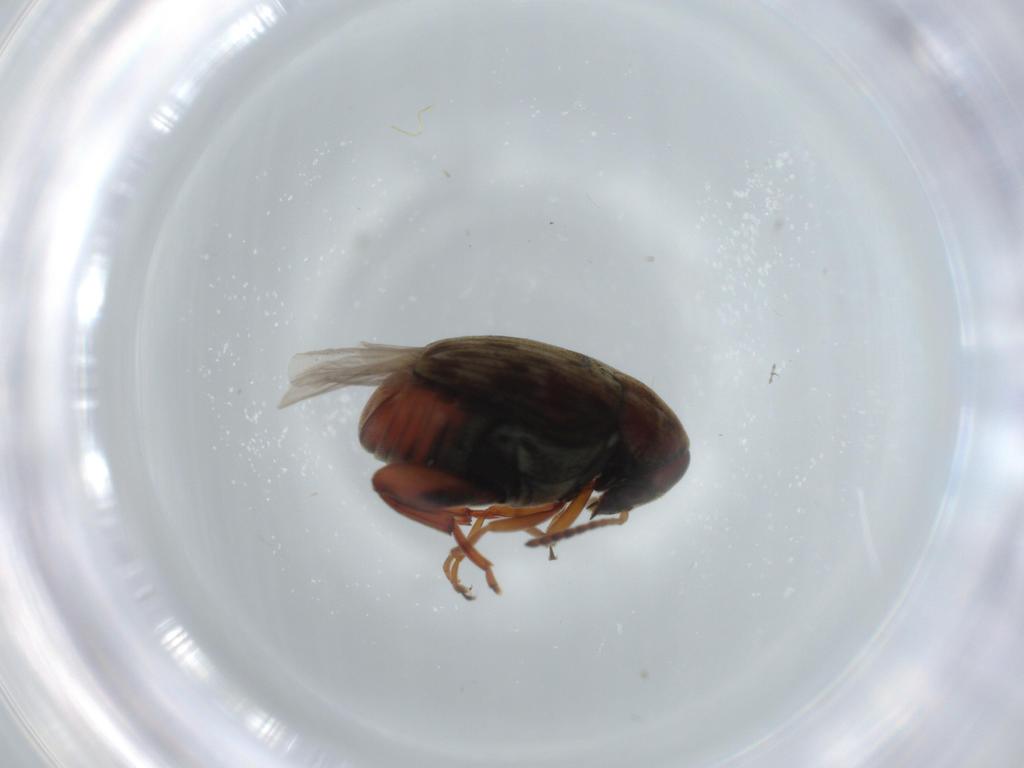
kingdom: Animalia
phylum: Arthropoda
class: Insecta
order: Coleoptera
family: Chrysomelidae
